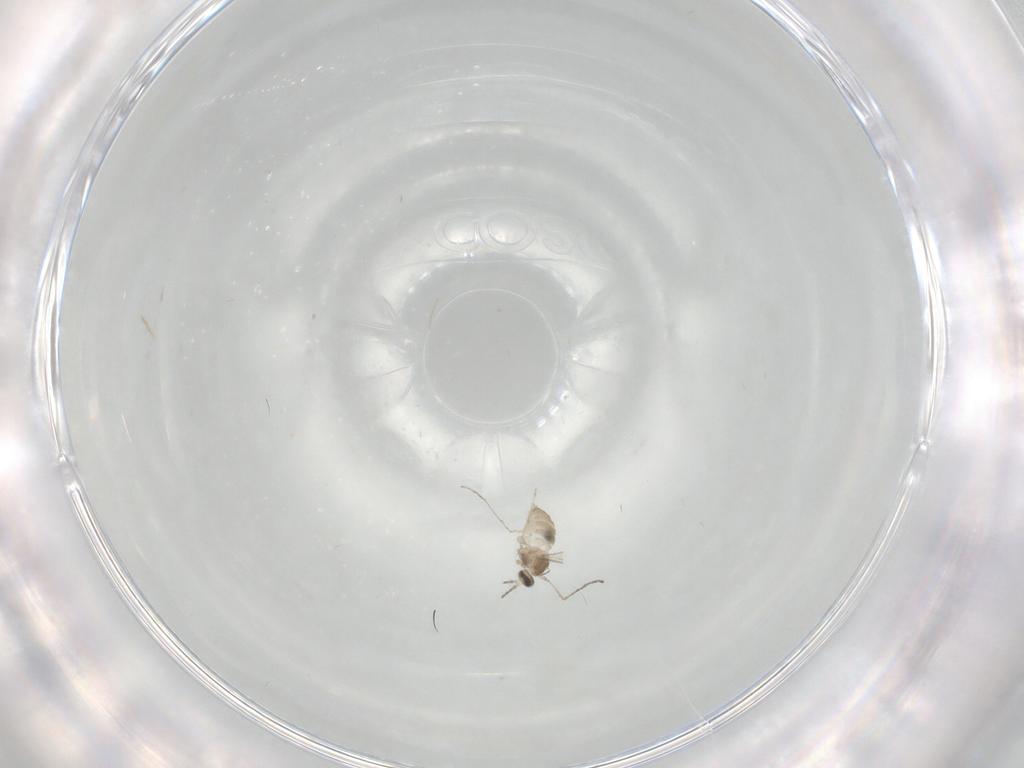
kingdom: Animalia
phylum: Arthropoda
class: Insecta
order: Diptera
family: Cecidomyiidae
